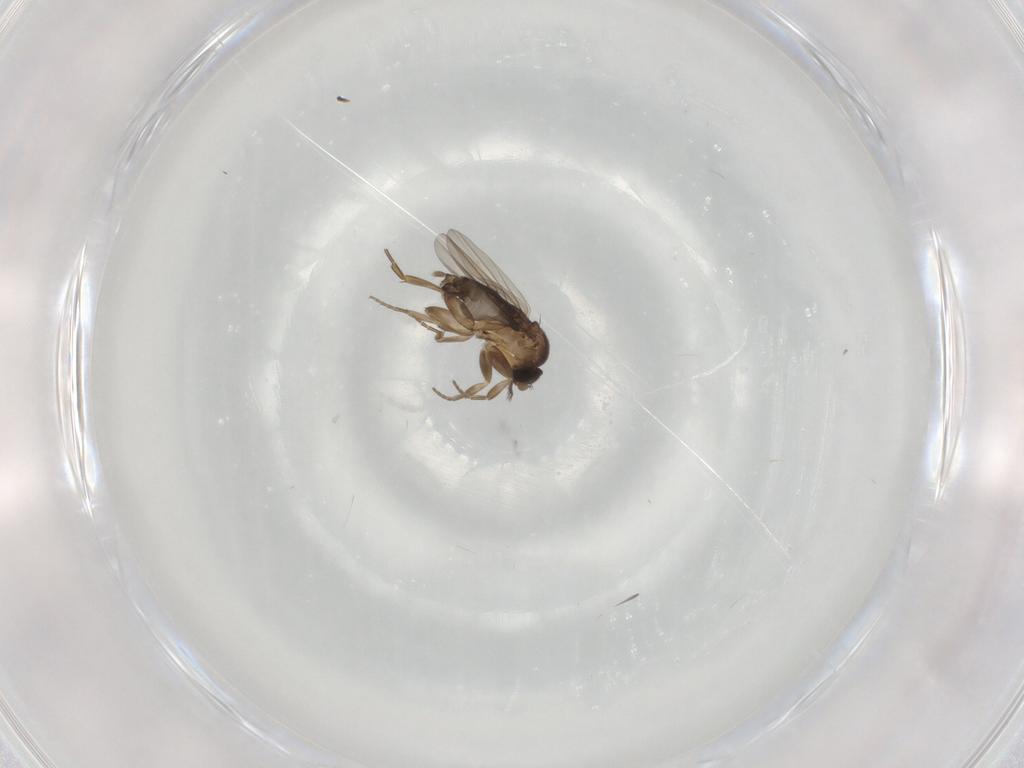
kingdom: Animalia
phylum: Arthropoda
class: Insecta
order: Diptera
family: Phoridae
